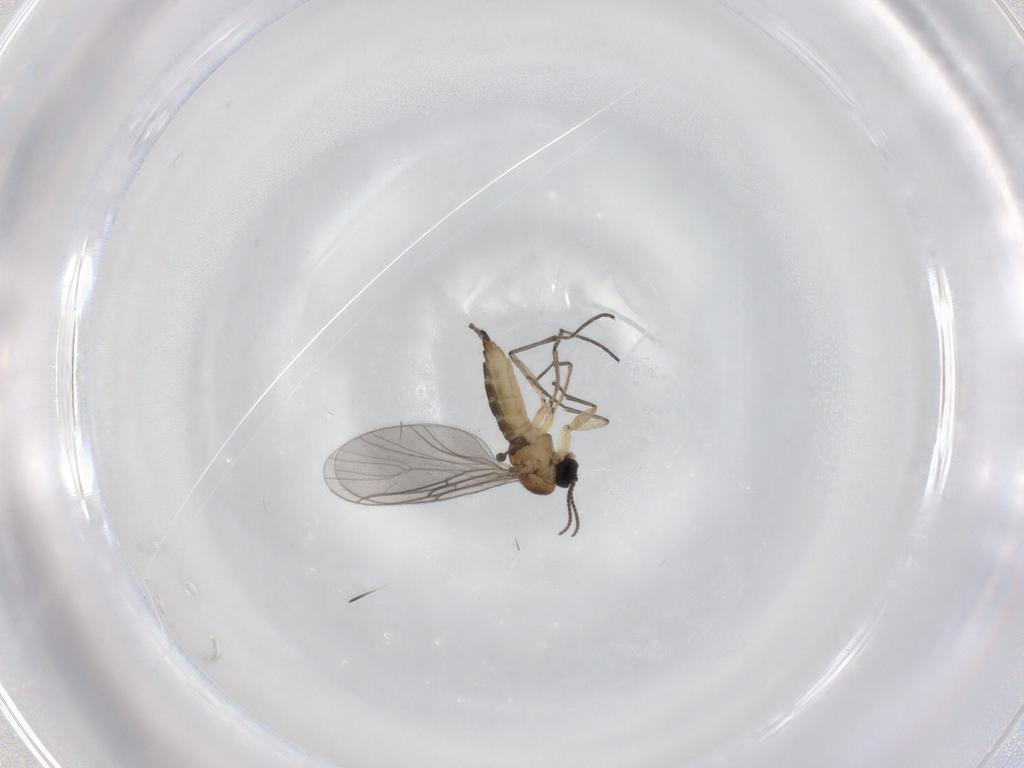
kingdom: Animalia
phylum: Arthropoda
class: Insecta
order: Diptera
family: Sciaridae
